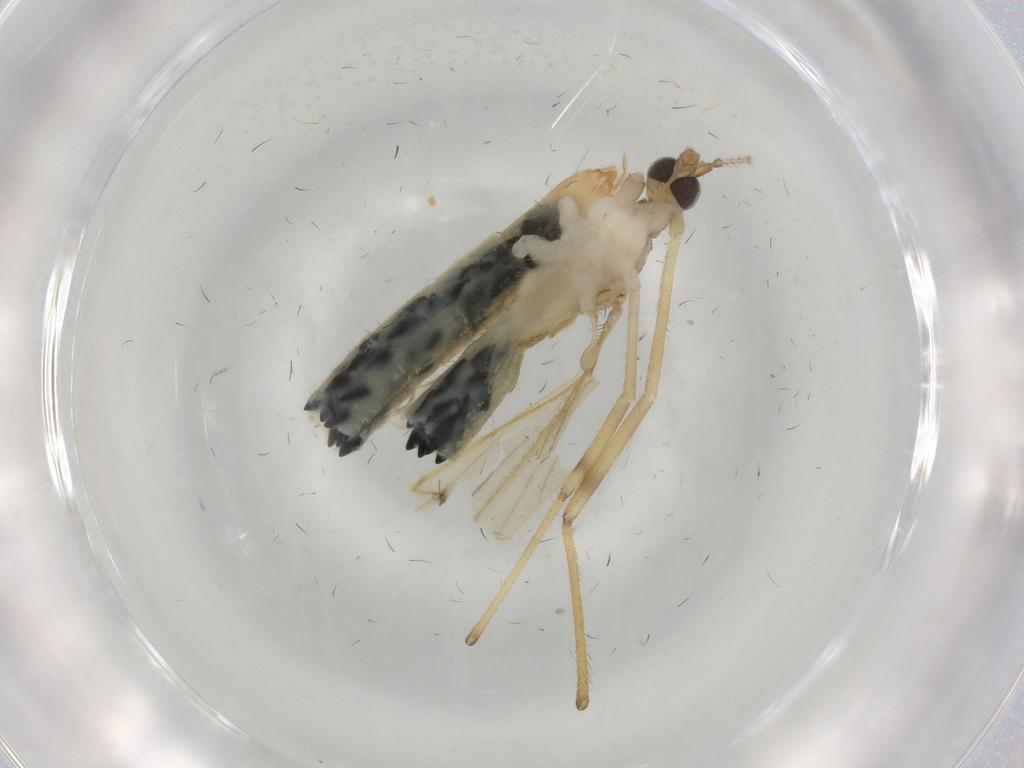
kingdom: Animalia
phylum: Arthropoda
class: Insecta
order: Diptera
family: Limoniidae
